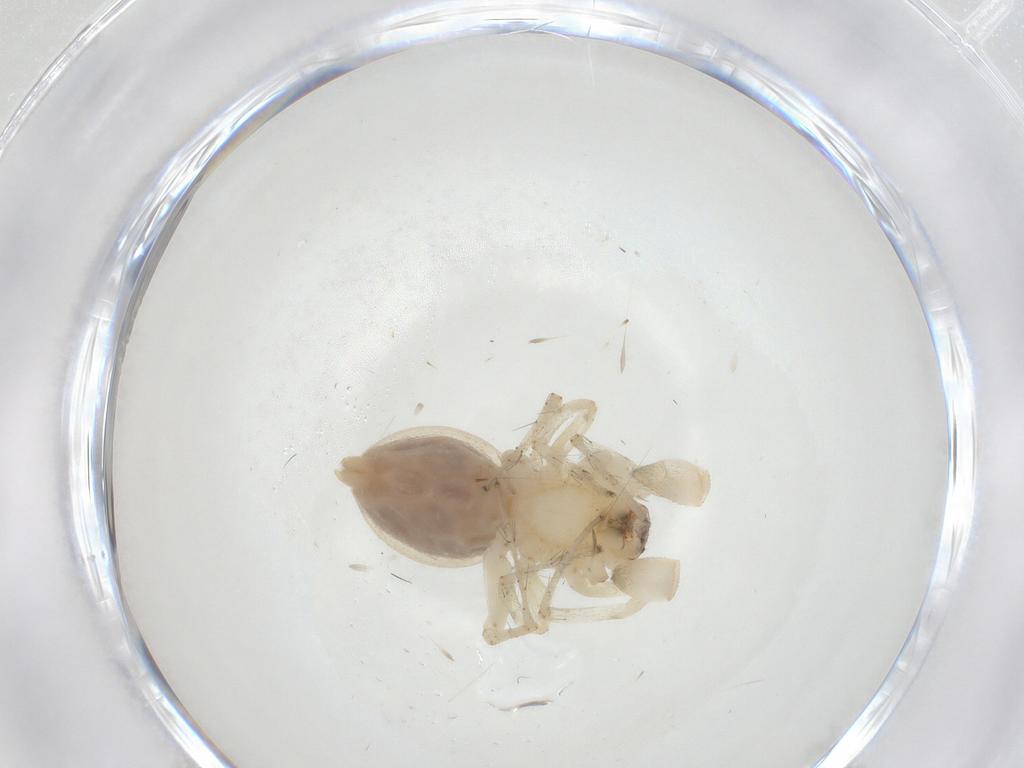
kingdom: Animalia
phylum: Arthropoda
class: Arachnida
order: Araneae
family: Anyphaenidae
